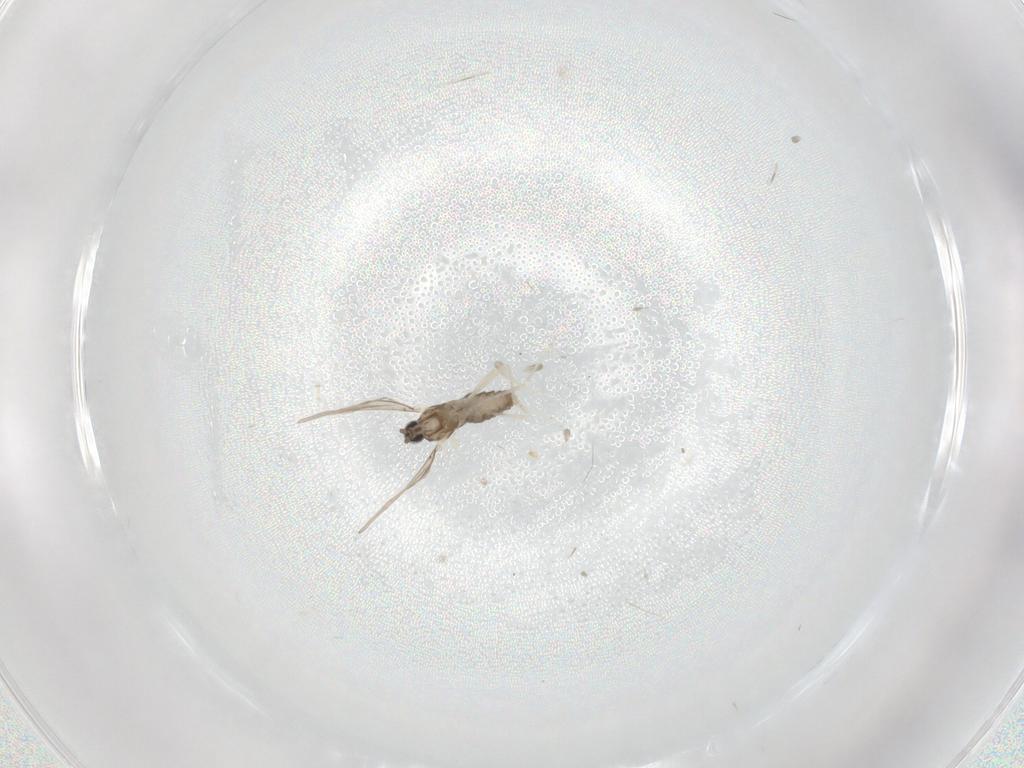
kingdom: Animalia
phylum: Arthropoda
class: Insecta
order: Diptera
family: Cecidomyiidae
